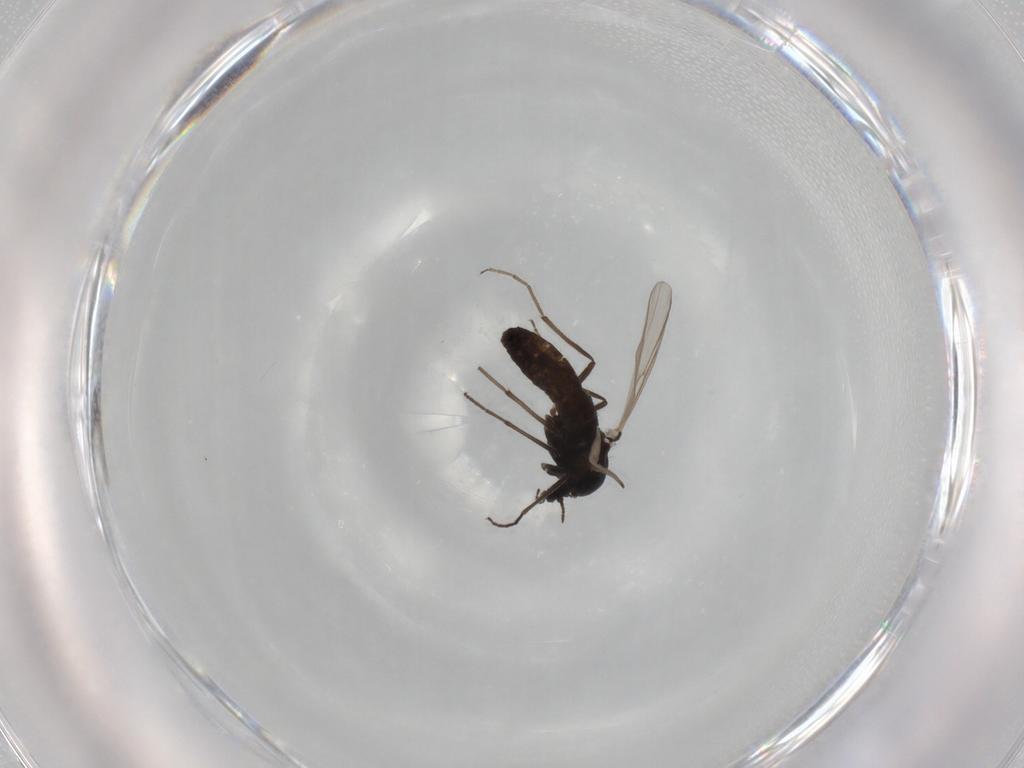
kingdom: Animalia
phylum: Arthropoda
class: Insecta
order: Diptera
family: Chironomidae
